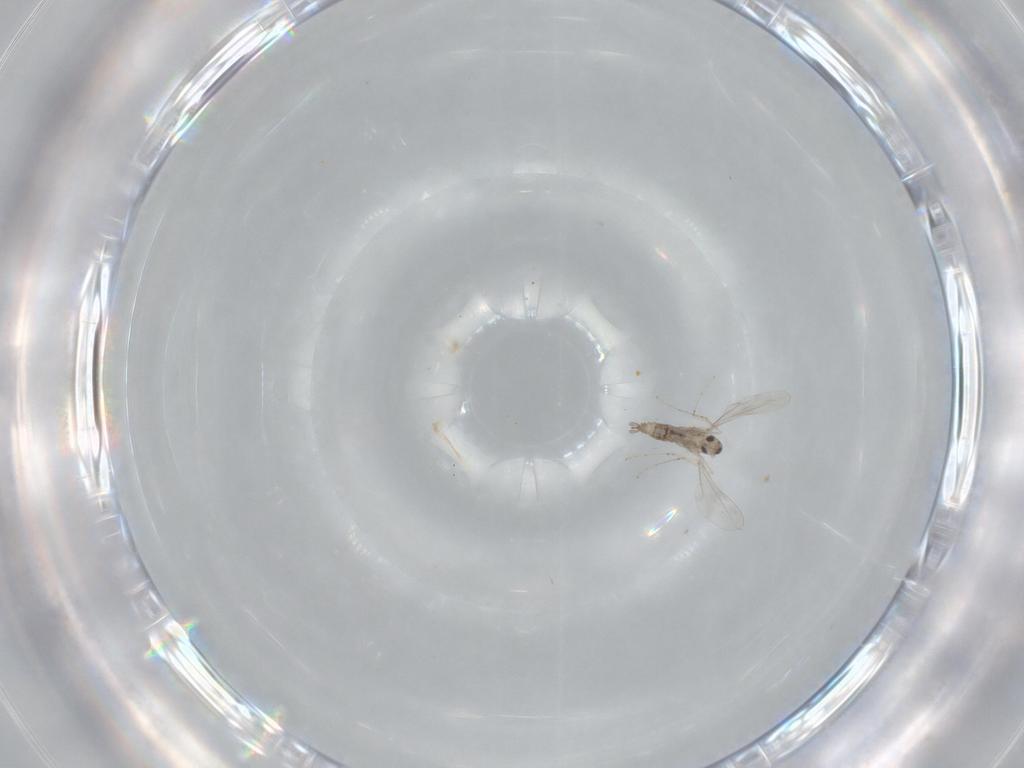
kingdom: Animalia
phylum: Arthropoda
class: Insecta
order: Diptera
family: Cecidomyiidae
